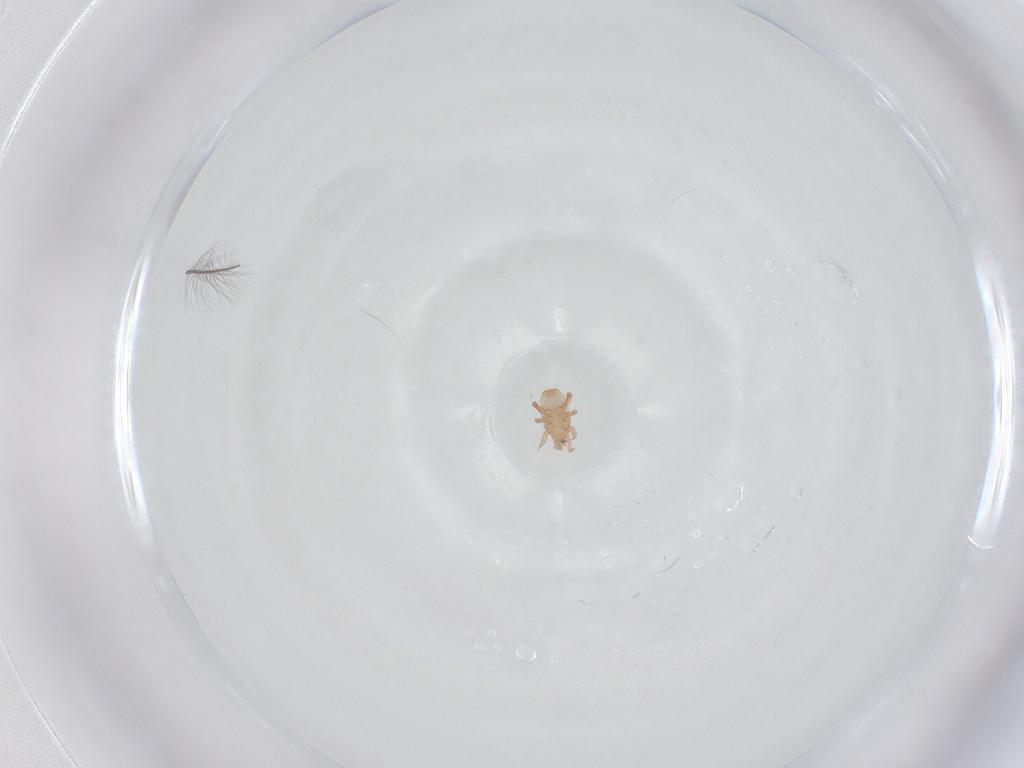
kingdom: Animalia
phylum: Arthropoda
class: Arachnida
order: Mesostigmata
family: Halolaelapidae
